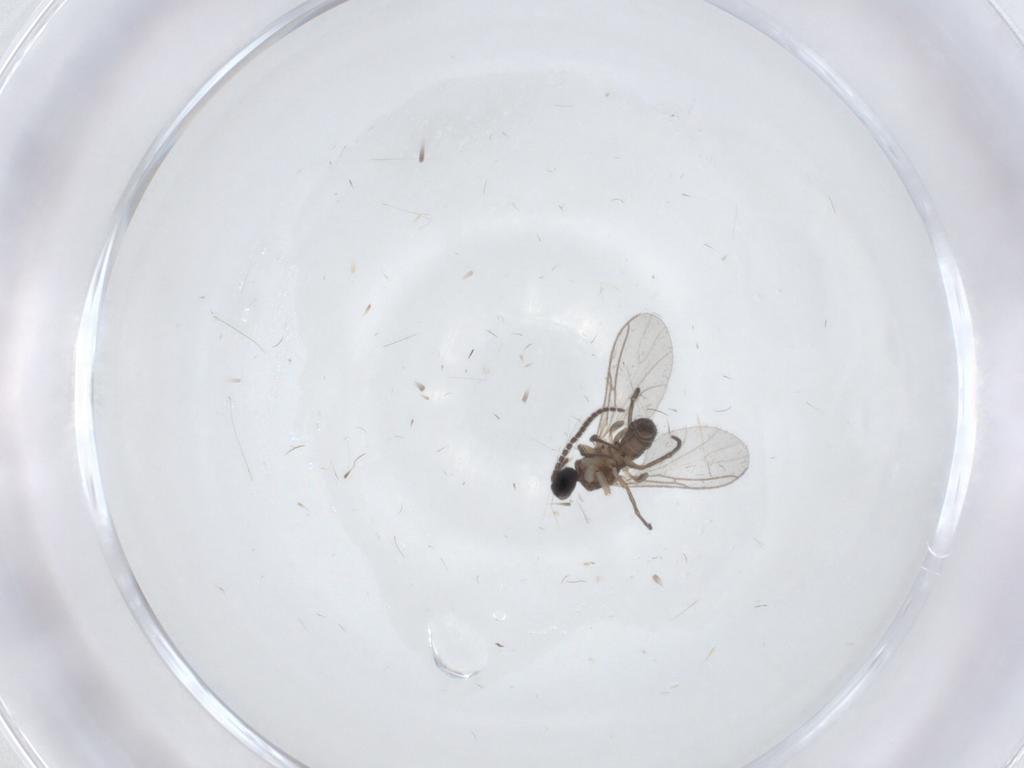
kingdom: Animalia
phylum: Arthropoda
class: Insecta
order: Diptera
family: Sciaridae
